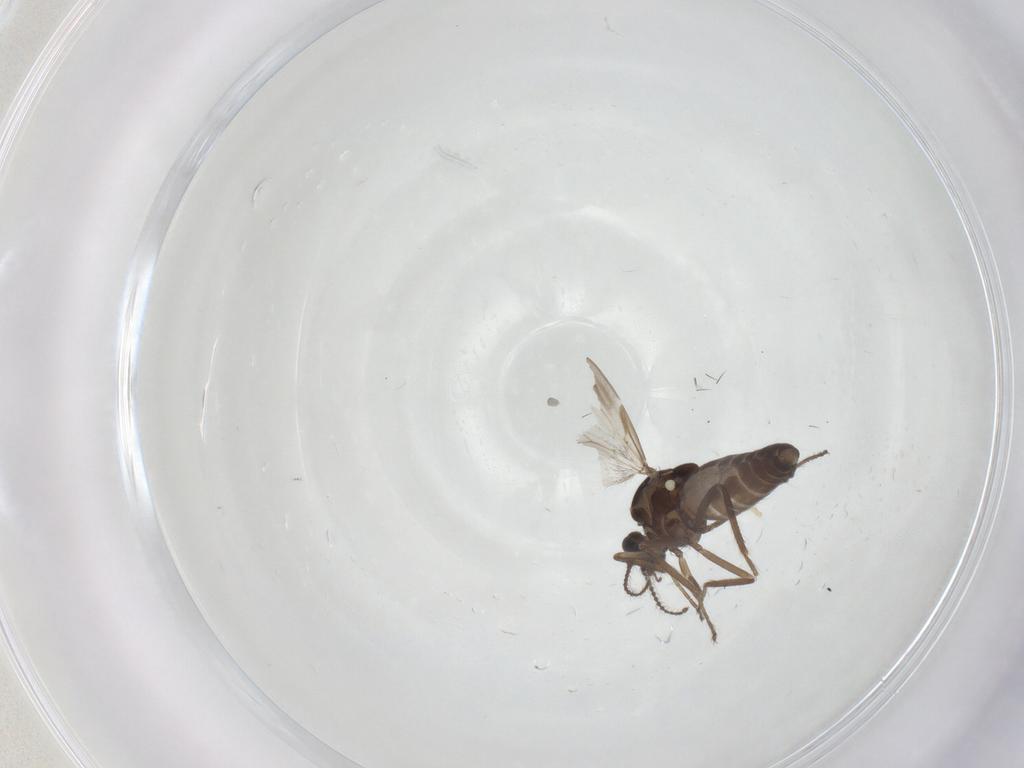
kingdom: Animalia
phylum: Arthropoda
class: Insecta
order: Diptera
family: Ceratopogonidae
